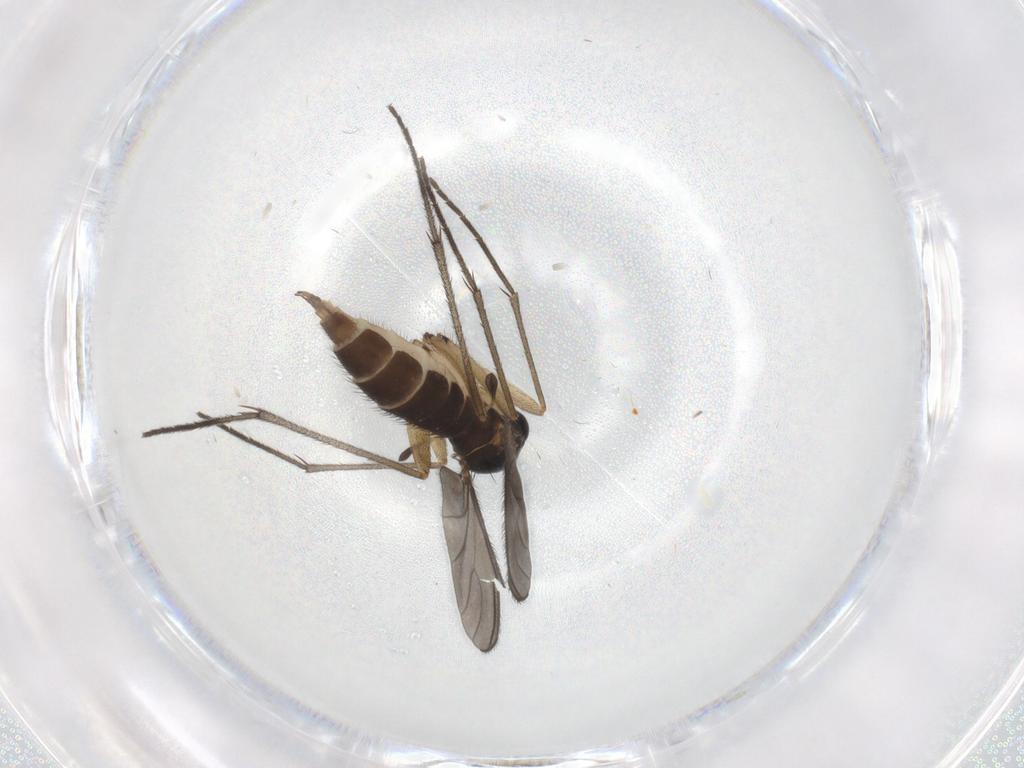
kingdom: Animalia
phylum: Arthropoda
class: Insecta
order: Diptera
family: Sciaridae
